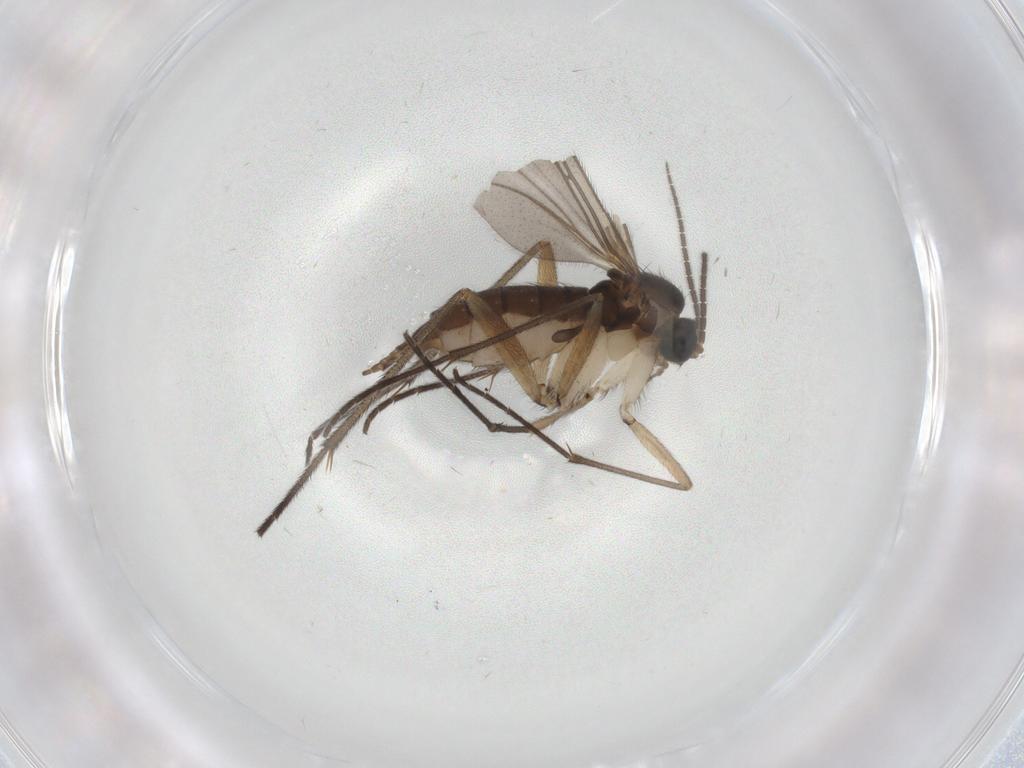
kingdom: Animalia
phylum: Arthropoda
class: Insecta
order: Diptera
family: Sciaridae
